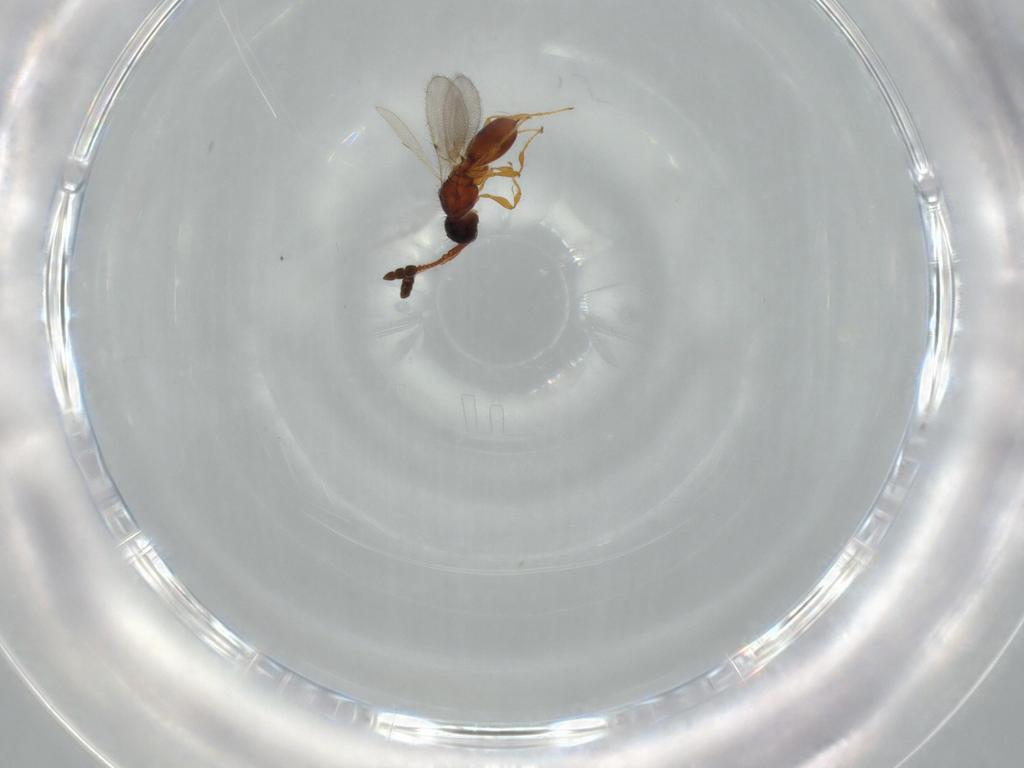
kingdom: Animalia
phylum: Arthropoda
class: Insecta
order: Hymenoptera
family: Diapriidae
